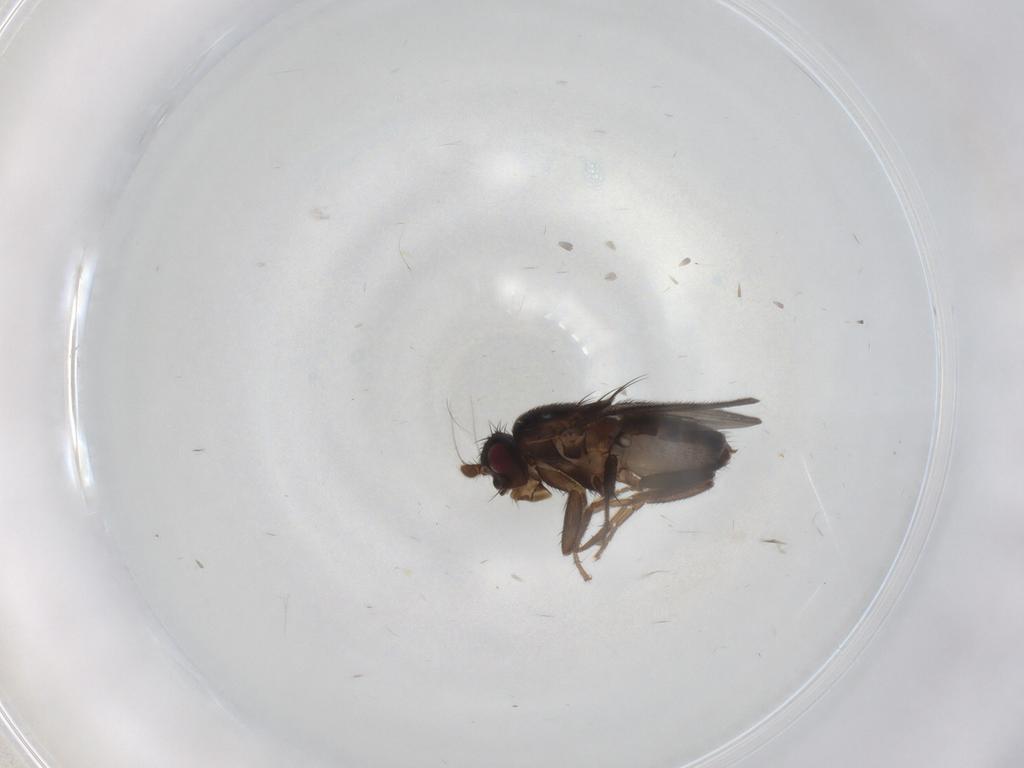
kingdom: Animalia
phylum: Arthropoda
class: Insecta
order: Diptera
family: Sphaeroceridae
